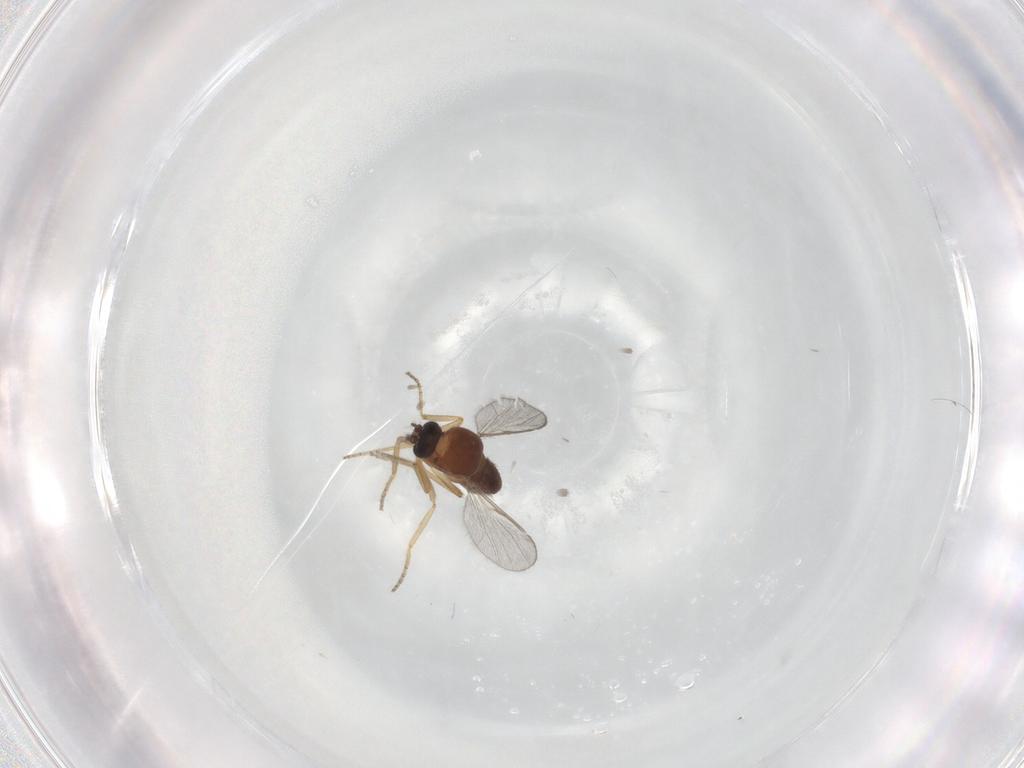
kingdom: Animalia
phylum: Arthropoda
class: Insecta
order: Diptera
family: Ceratopogonidae
